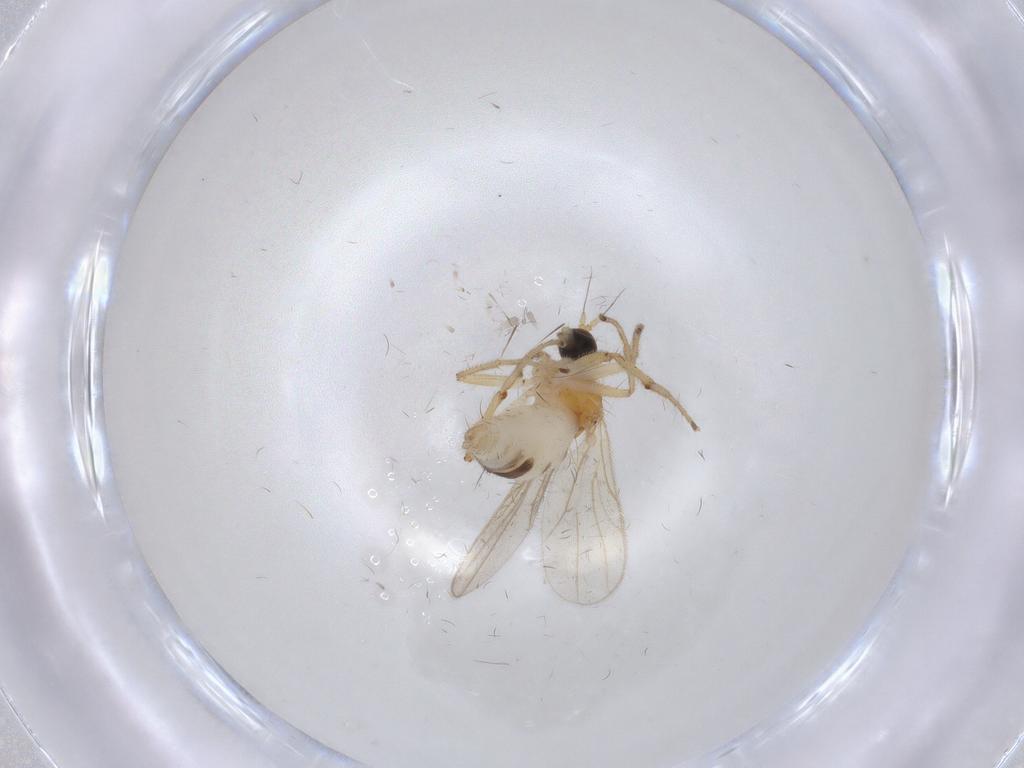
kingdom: Animalia
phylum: Arthropoda
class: Insecta
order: Diptera
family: Hybotidae
